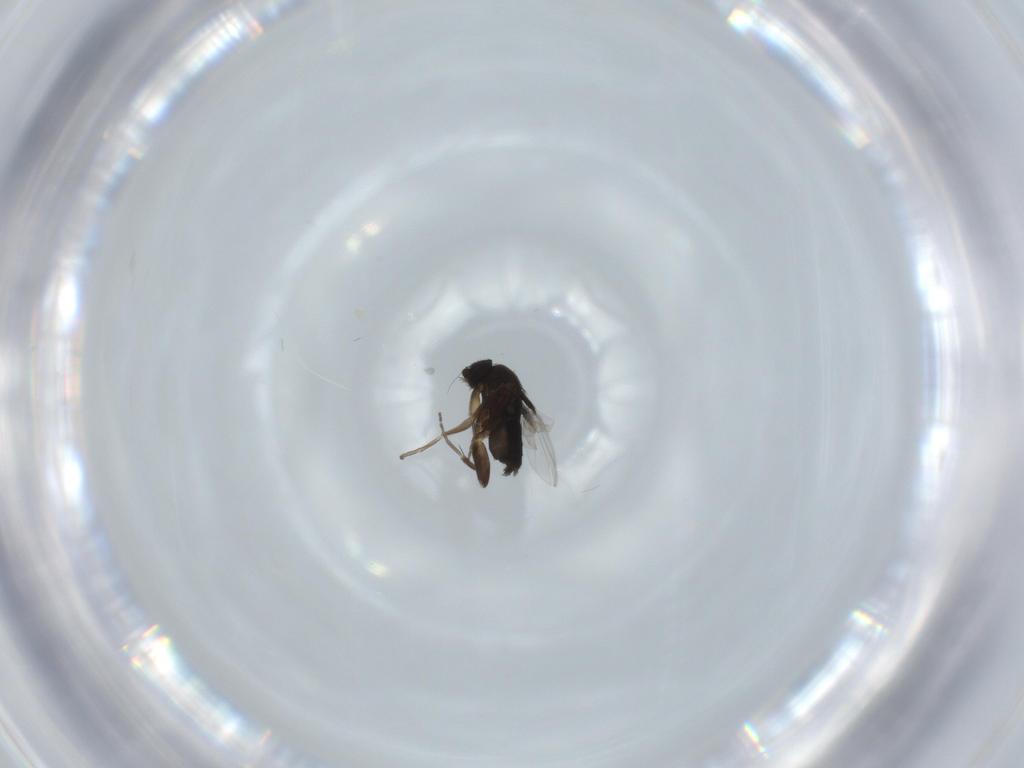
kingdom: Animalia
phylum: Arthropoda
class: Insecta
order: Diptera
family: Phoridae
